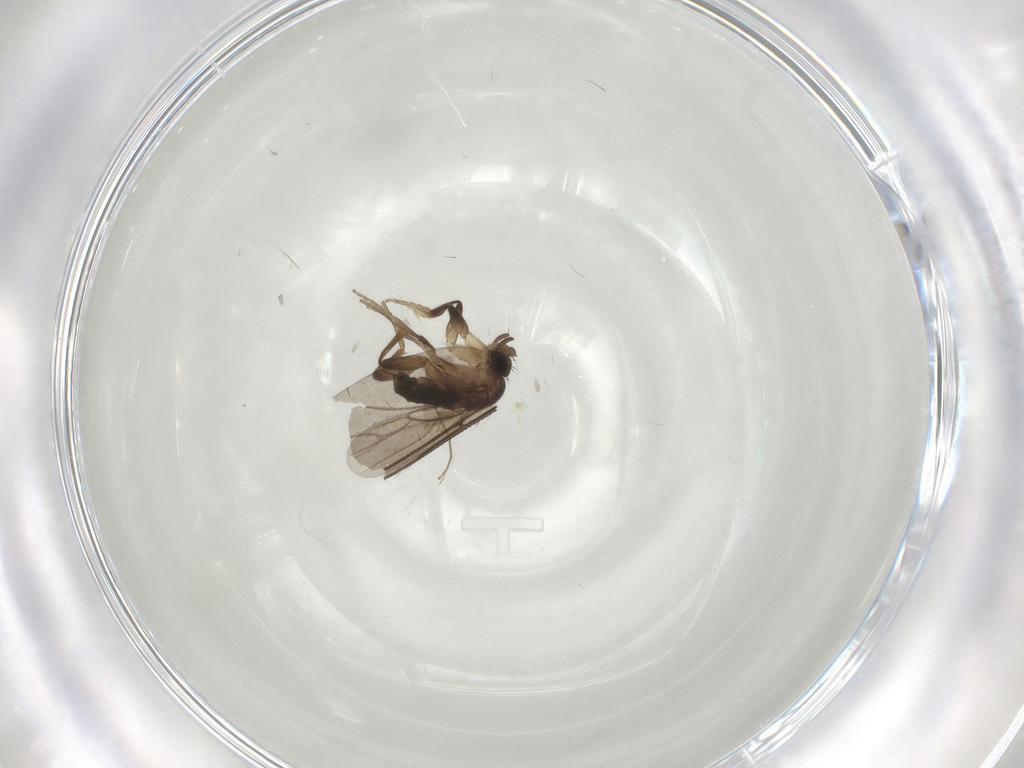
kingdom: Animalia
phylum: Arthropoda
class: Insecta
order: Diptera
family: Phoridae
